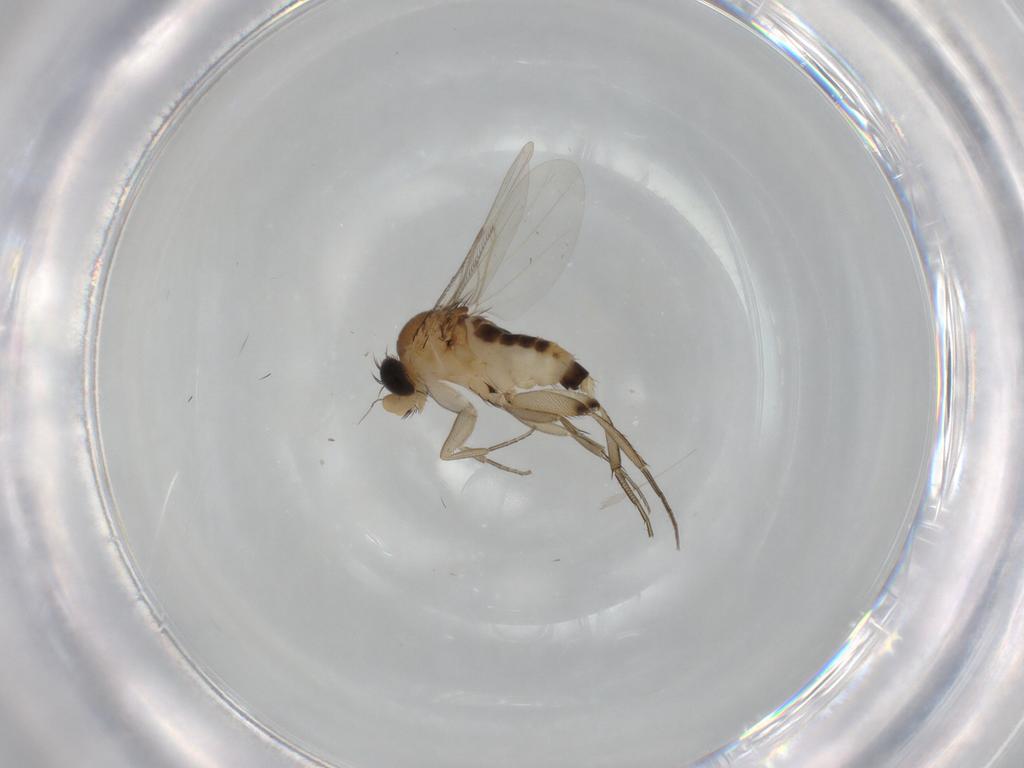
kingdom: Animalia
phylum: Arthropoda
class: Insecta
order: Diptera
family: Phoridae
